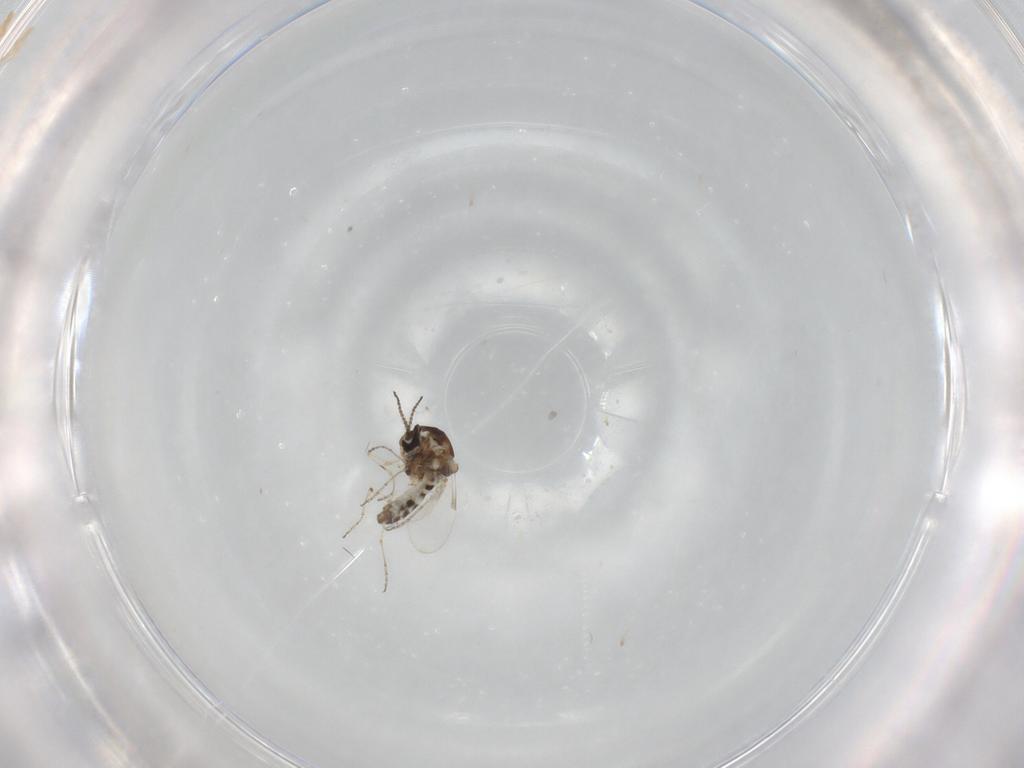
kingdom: Animalia
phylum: Arthropoda
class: Insecta
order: Diptera
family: Ceratopogonidae
